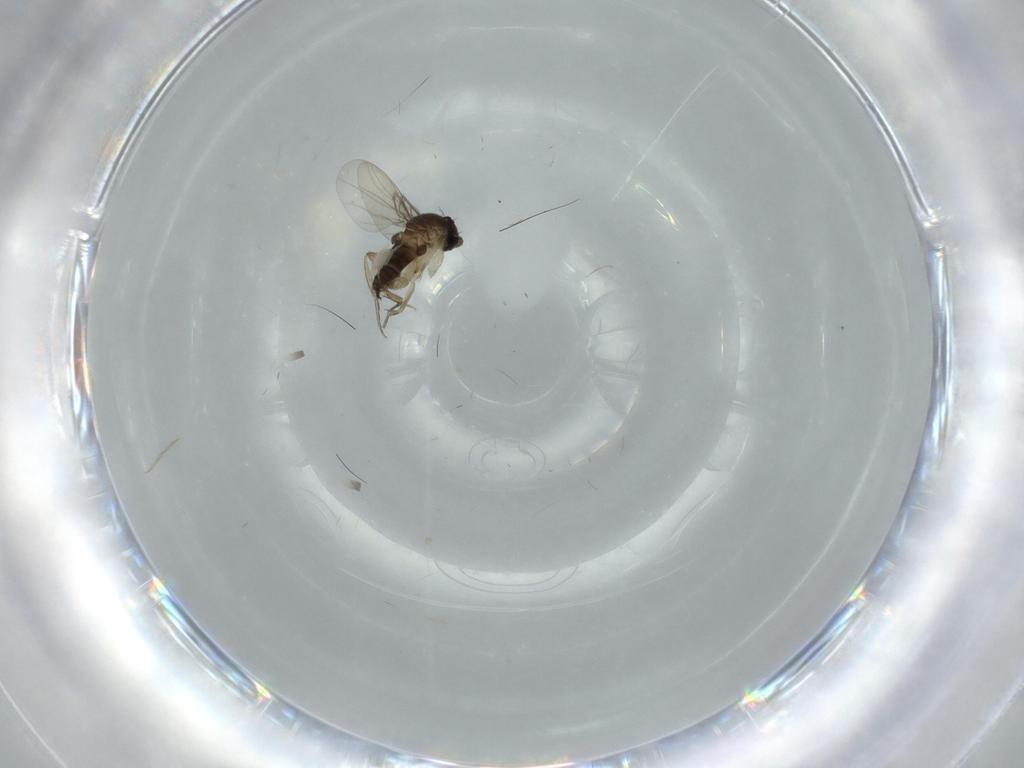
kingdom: Animalia
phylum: Arthropoda
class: Insecta
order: Diptera
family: Phoridae
